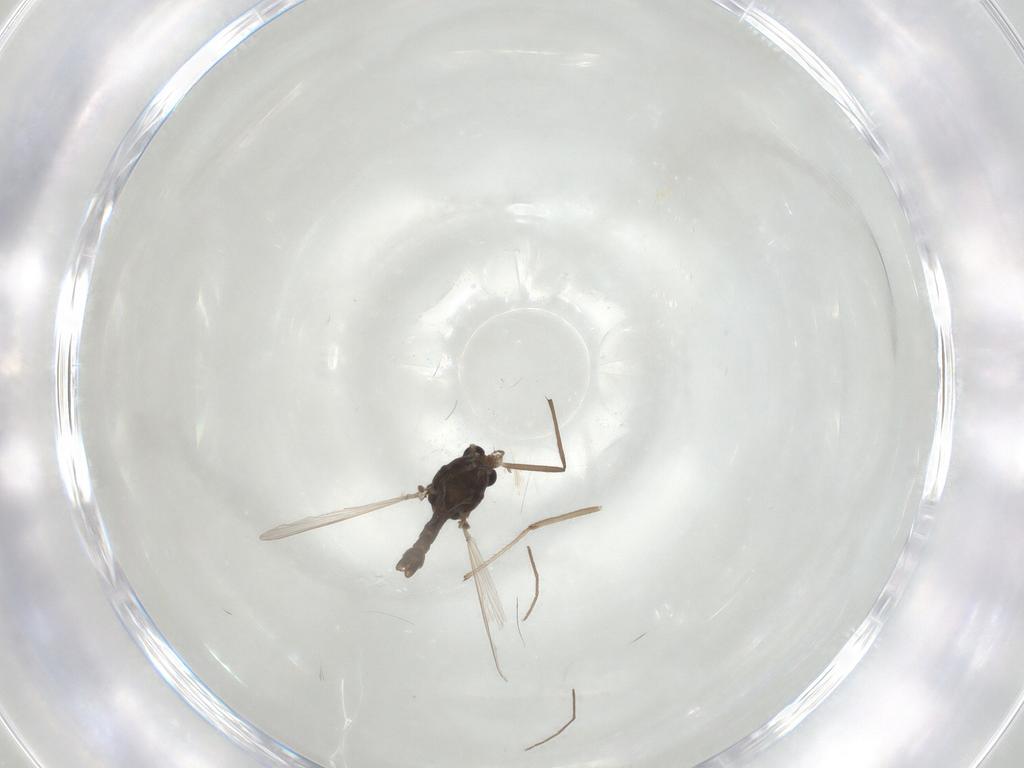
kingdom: Animalia
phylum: Arthropoda
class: Insecta
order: Diptera
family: Chironomidae
